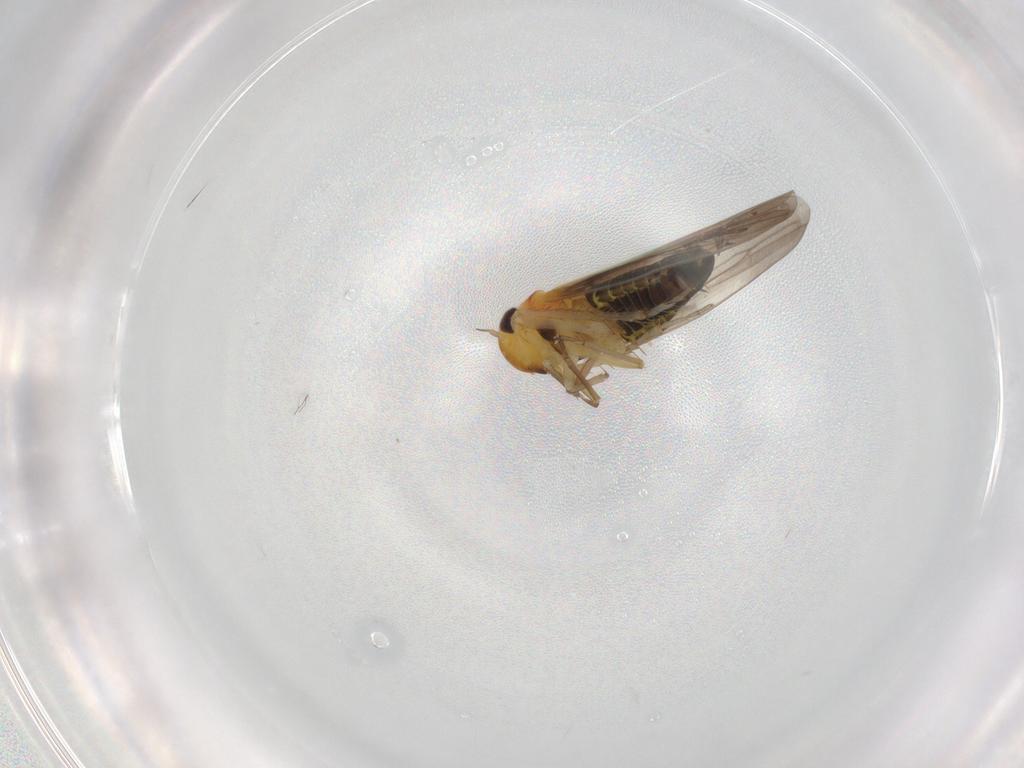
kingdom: Animalia
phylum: Arthropoda
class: Insecta
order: Hemiptera
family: Cicadellidae
